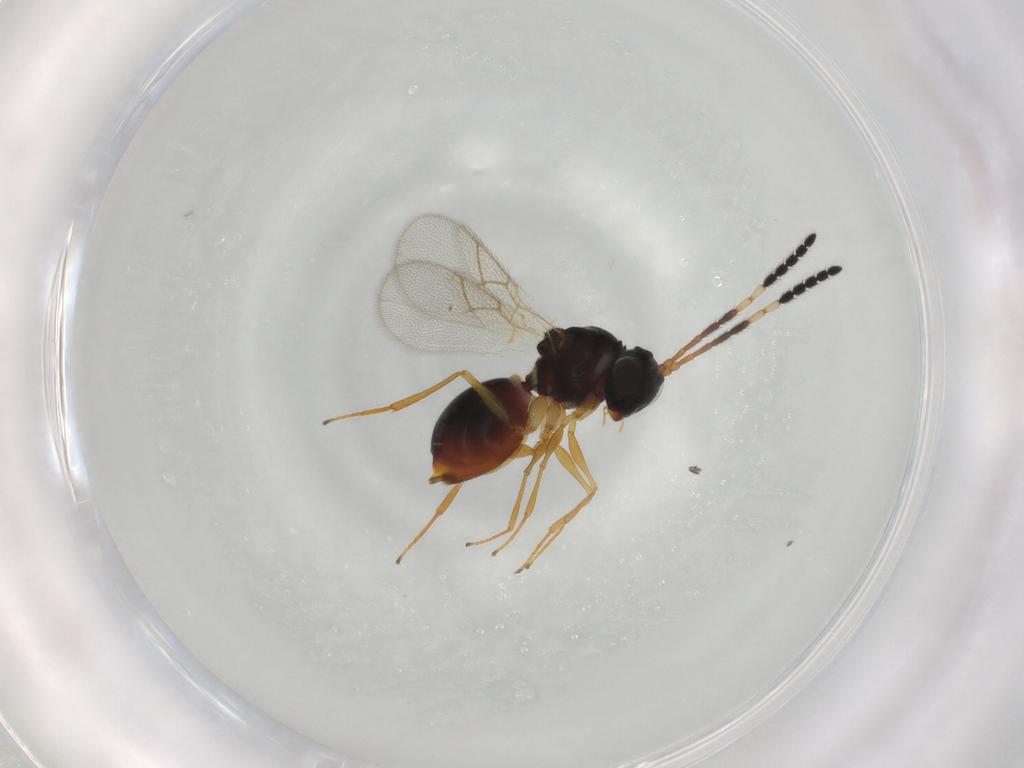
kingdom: Animalia
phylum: Arthropoda
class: Insecta
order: Hymenoptera
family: Figitidae
